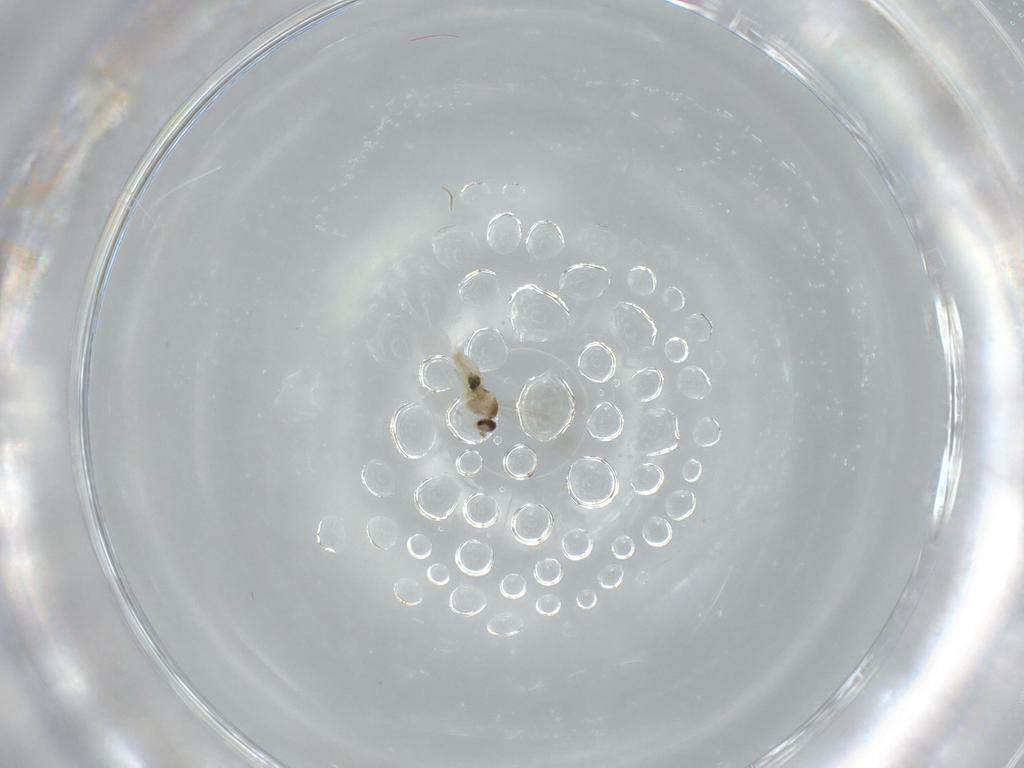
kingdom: Animalia
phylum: Arthropoda
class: Insecta
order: Diptera
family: Cecidomyiidae
